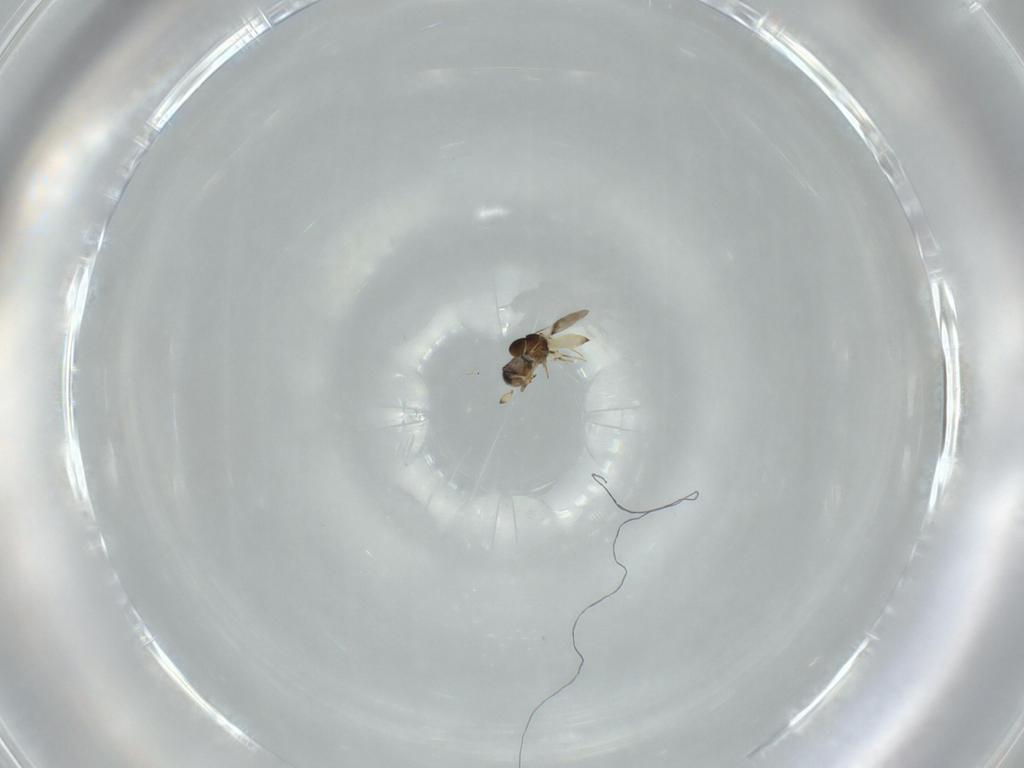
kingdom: Animalia
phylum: Arthropoda
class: Insecta
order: Hymenoptera
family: Scelionidae
